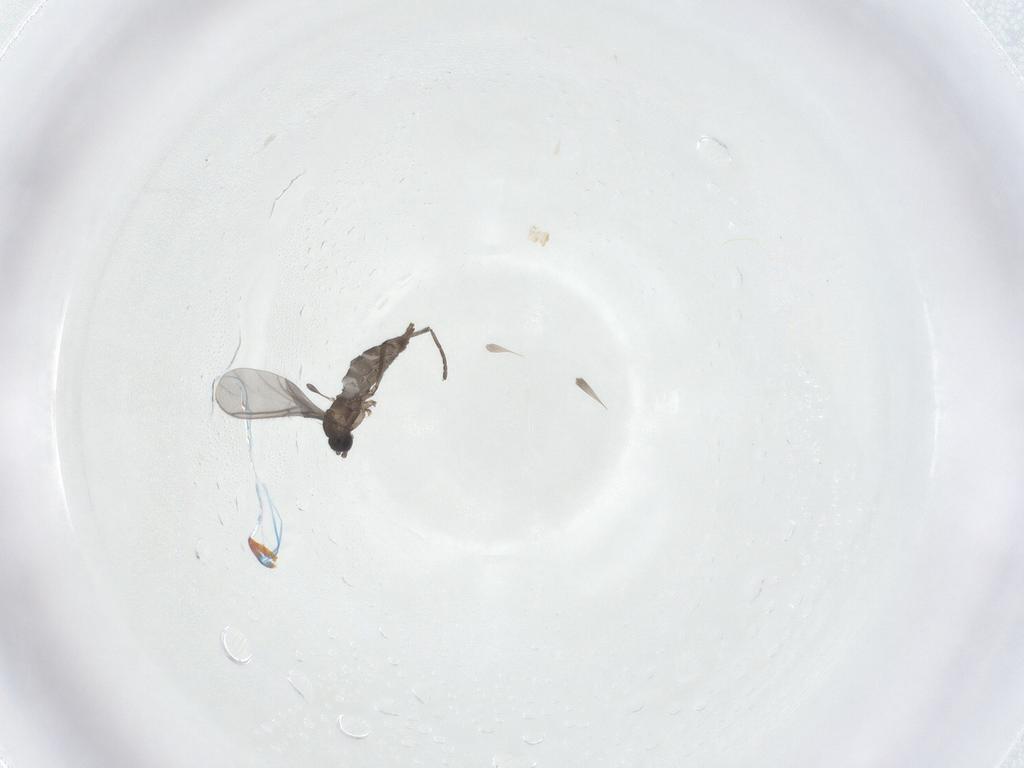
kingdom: Animalia
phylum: Arthropoda
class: Insecta
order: Diptera
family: Sciaridae
